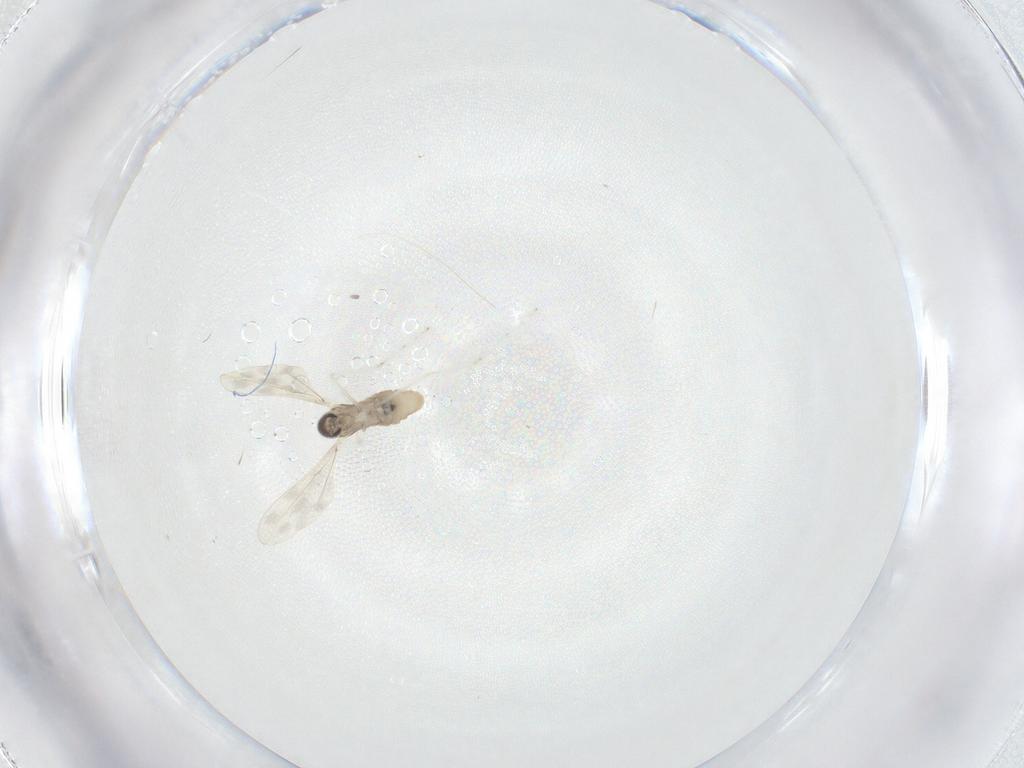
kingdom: Animalia
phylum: Arthropoda
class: Insecta
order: Diptera
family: Cecidomyiidae
